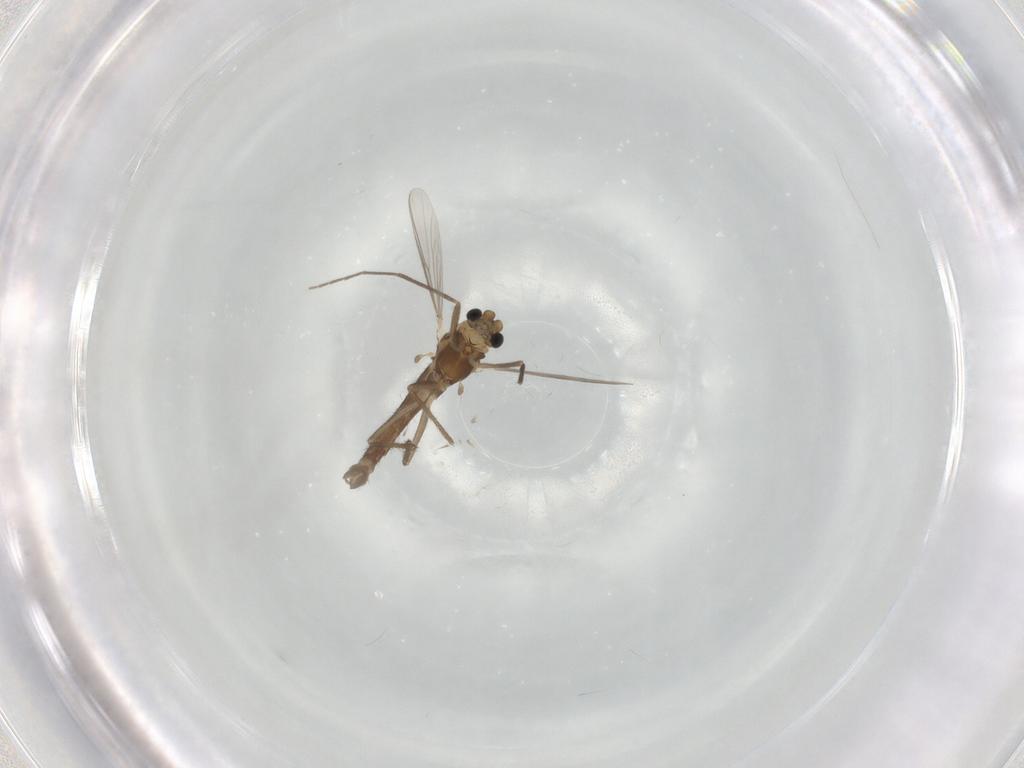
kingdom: Animalia
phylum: Arthropoda
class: Insecta
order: Diptera
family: Chironomidae
